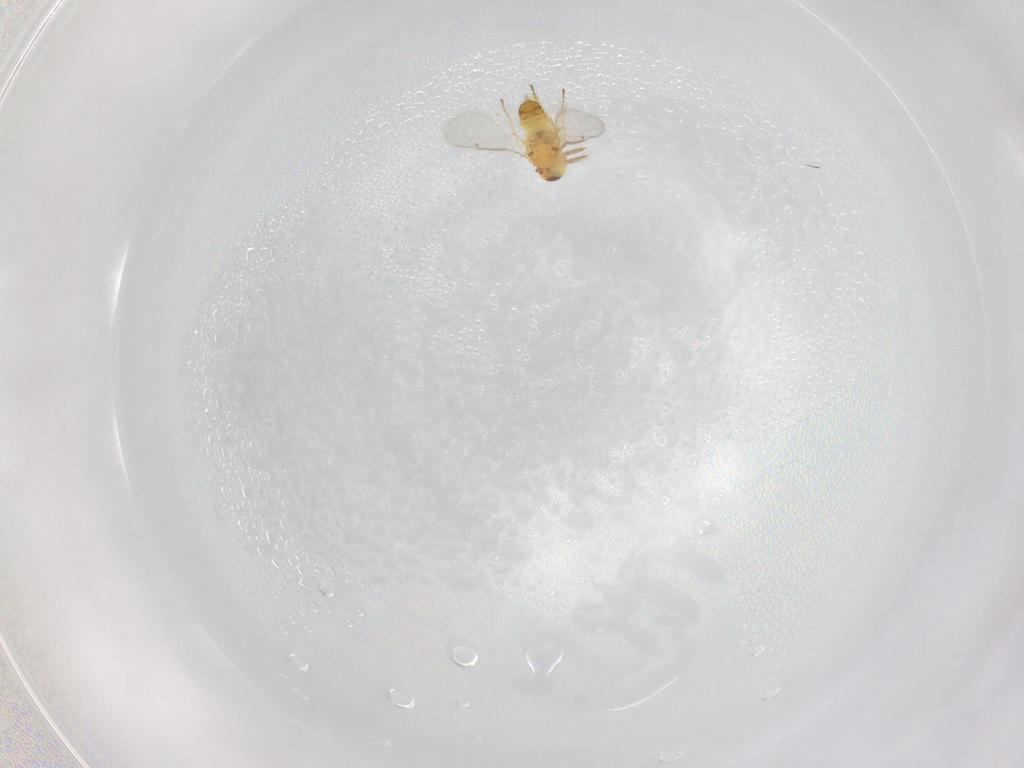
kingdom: Animalia
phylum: Arthropoda
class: Insecta
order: Hymenoptera
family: Eulophidae
